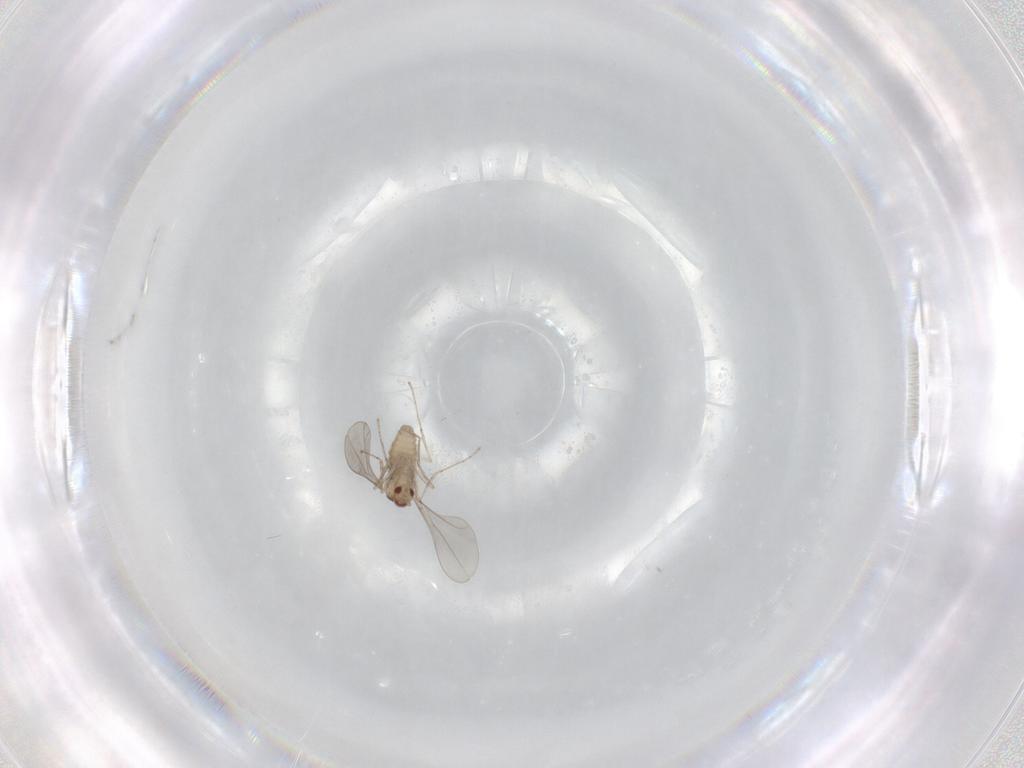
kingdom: Animalia
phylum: Arthropoda
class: Insecta
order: Diptera
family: Cecidomyiidae
